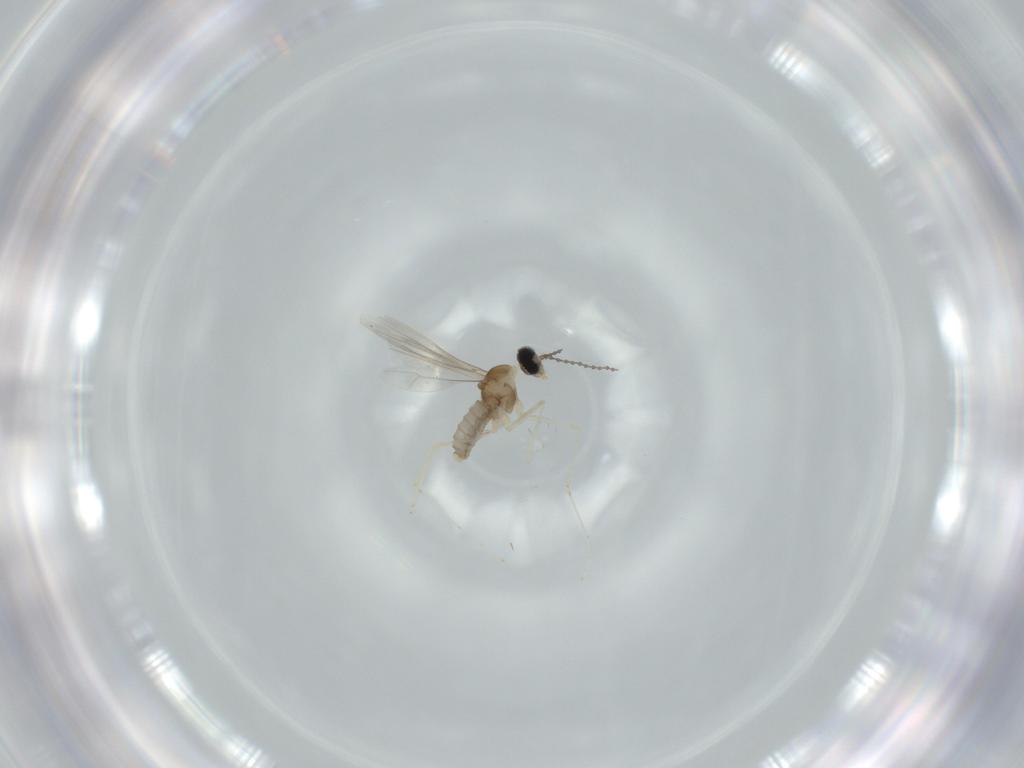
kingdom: Animalia
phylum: Arthropoda
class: Insecta
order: Diptera
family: Cecidomyiidae
